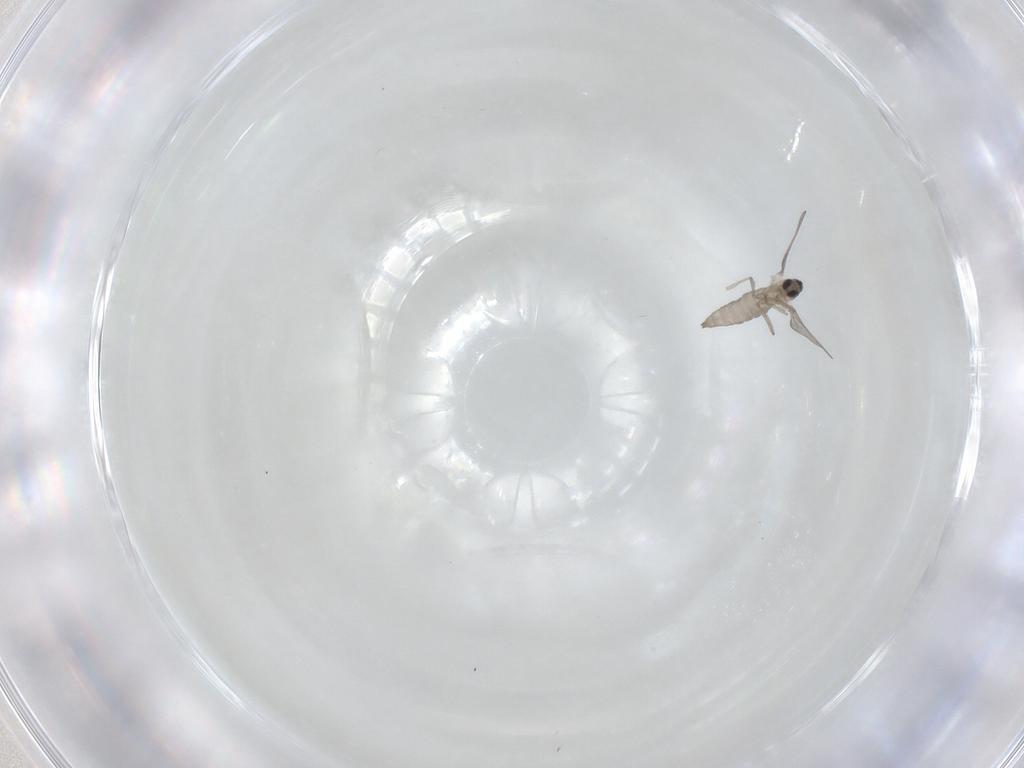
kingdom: Animalia
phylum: Arthropoda
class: Insecta
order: Diptera
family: Cecidomyiidae
